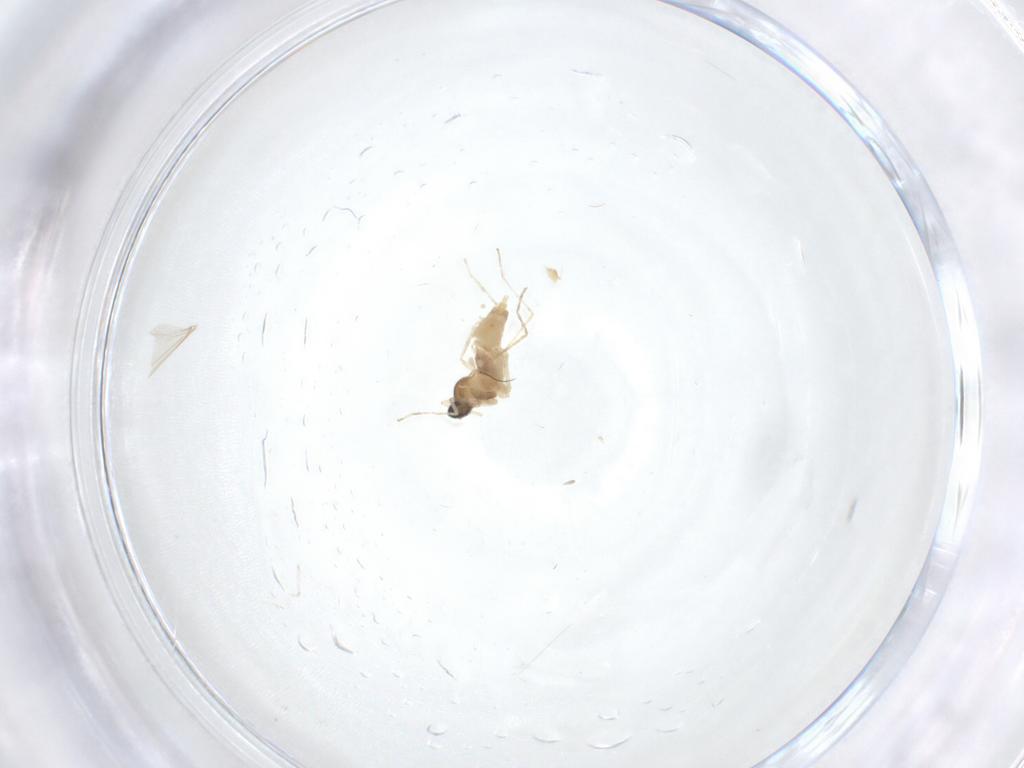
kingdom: Animalia
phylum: Arthropoda
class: Insecta
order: Diptera
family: Cecidomyiidae
